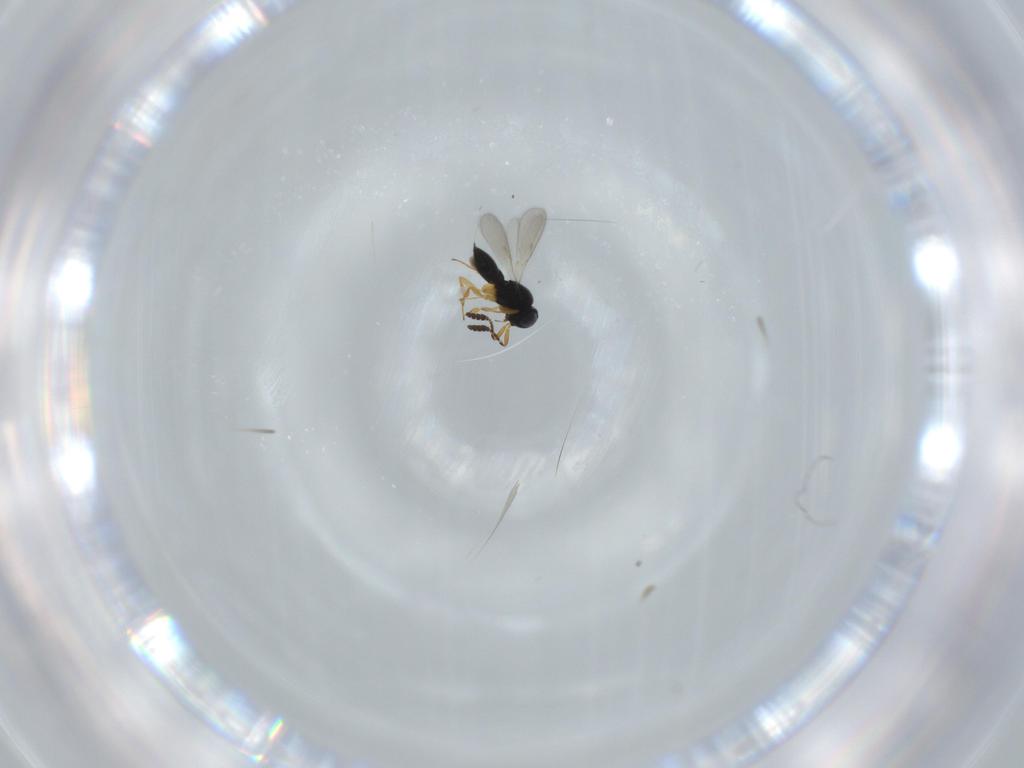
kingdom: Animalia
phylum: Arthropoda
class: Insecta
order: Hymenoptera
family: Scelionidae
